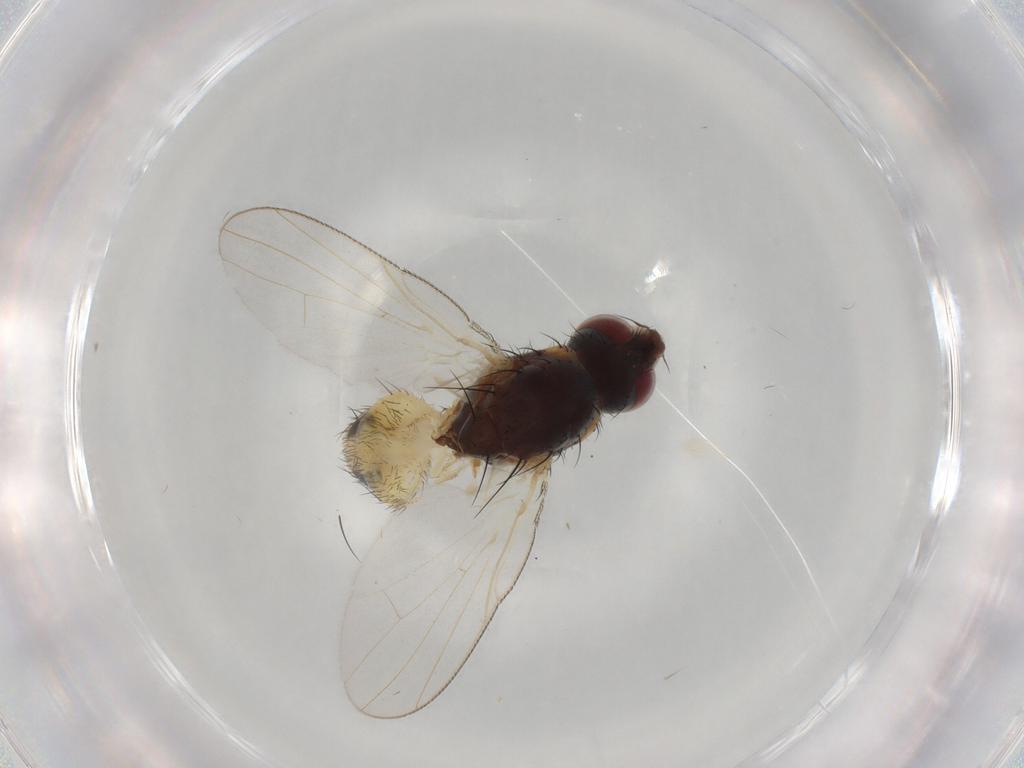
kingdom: Animalia
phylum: Arthropoda
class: Insecta
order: Diptera
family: Muscidae
